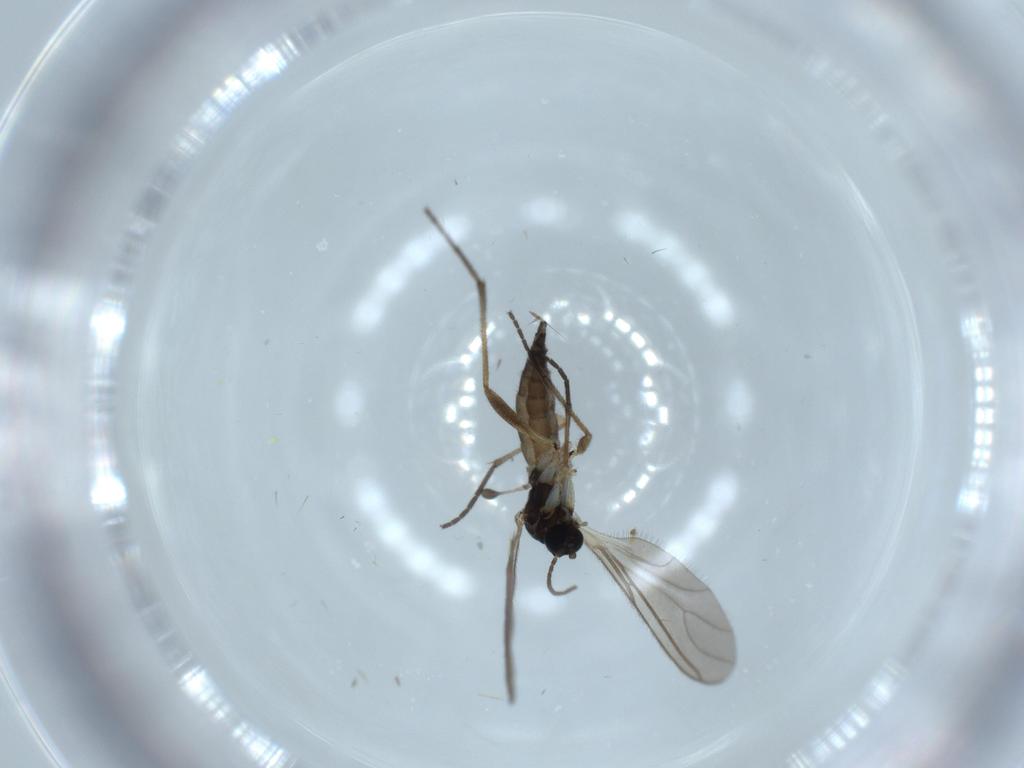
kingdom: Animalia
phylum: Arthropoda
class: Insecta
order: Diptera
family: Sciaridae
